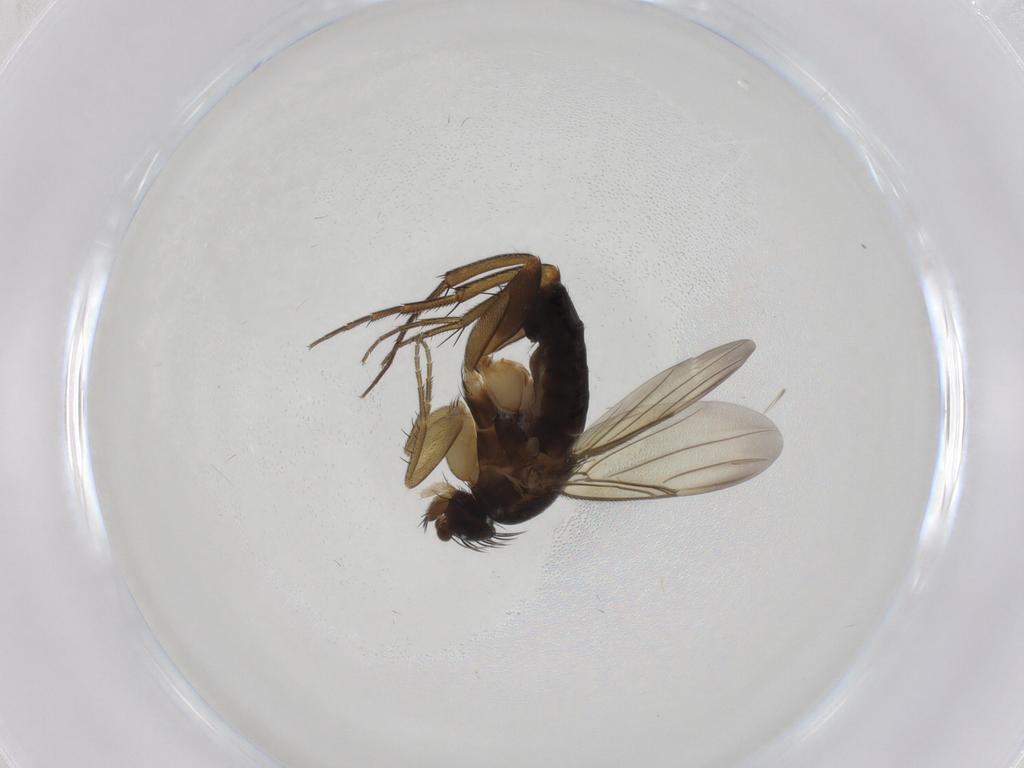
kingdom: Animalia
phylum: Arthropoda
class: Insecta
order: Diptera
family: Phoridae
